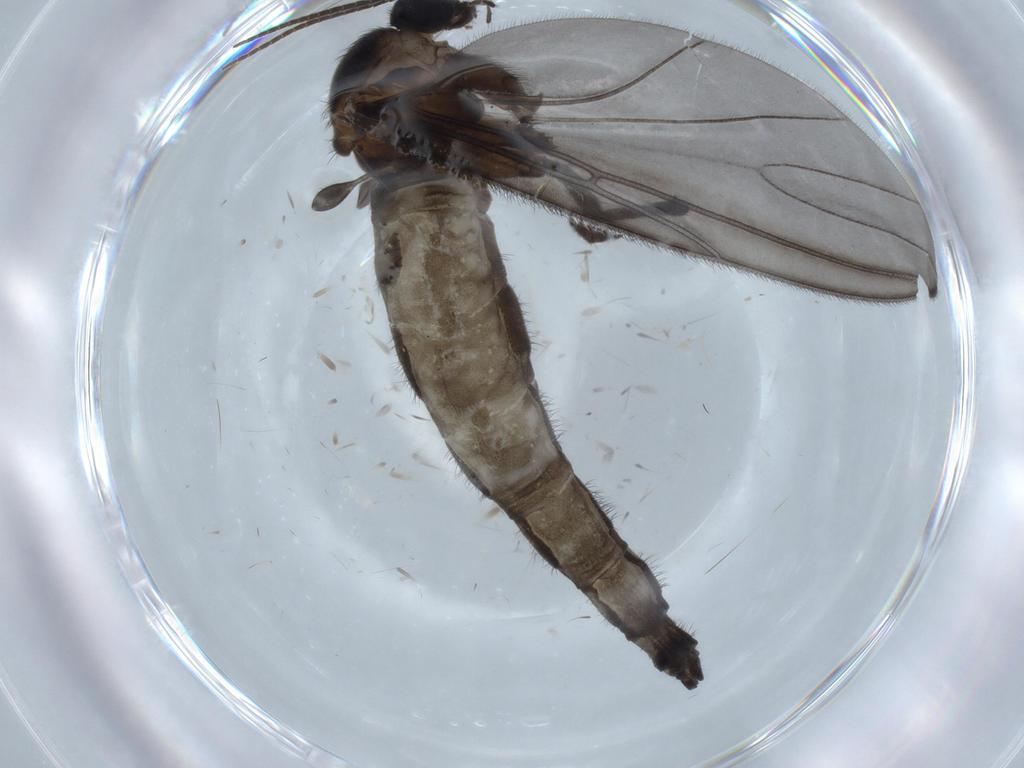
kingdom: Animalia
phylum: Arthropoda
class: Insecta
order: Diptera
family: Sciaridae
